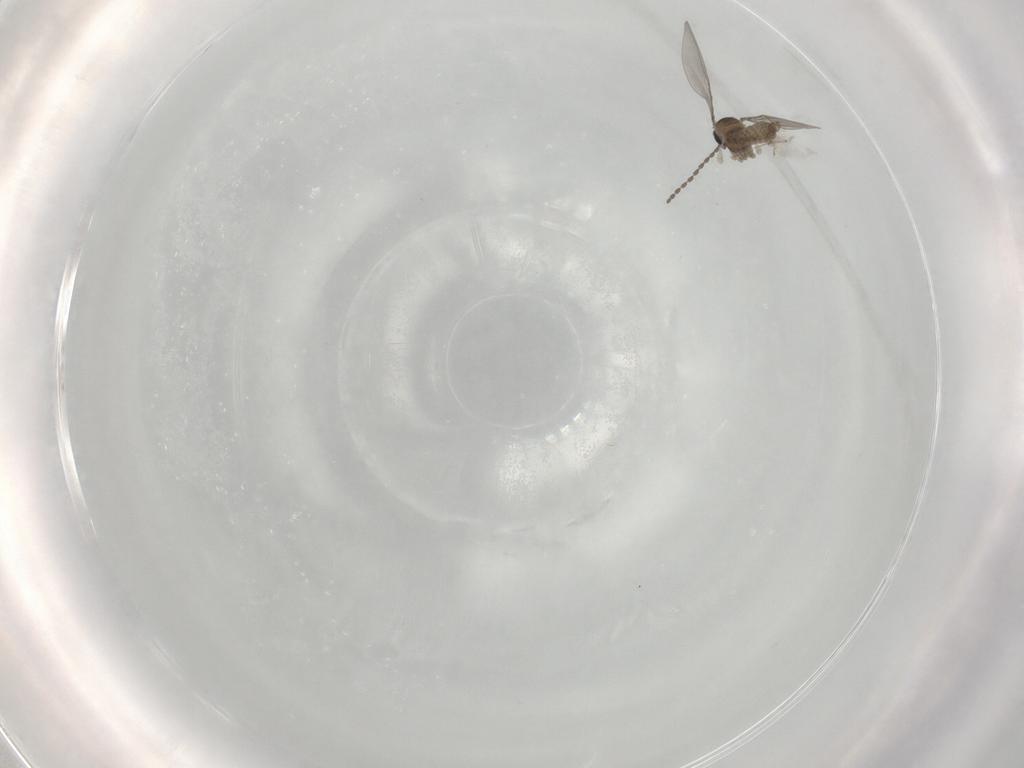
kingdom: Animalia
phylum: Arthropoda
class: Insecta
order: Diptera
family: Cecidomyiidae
